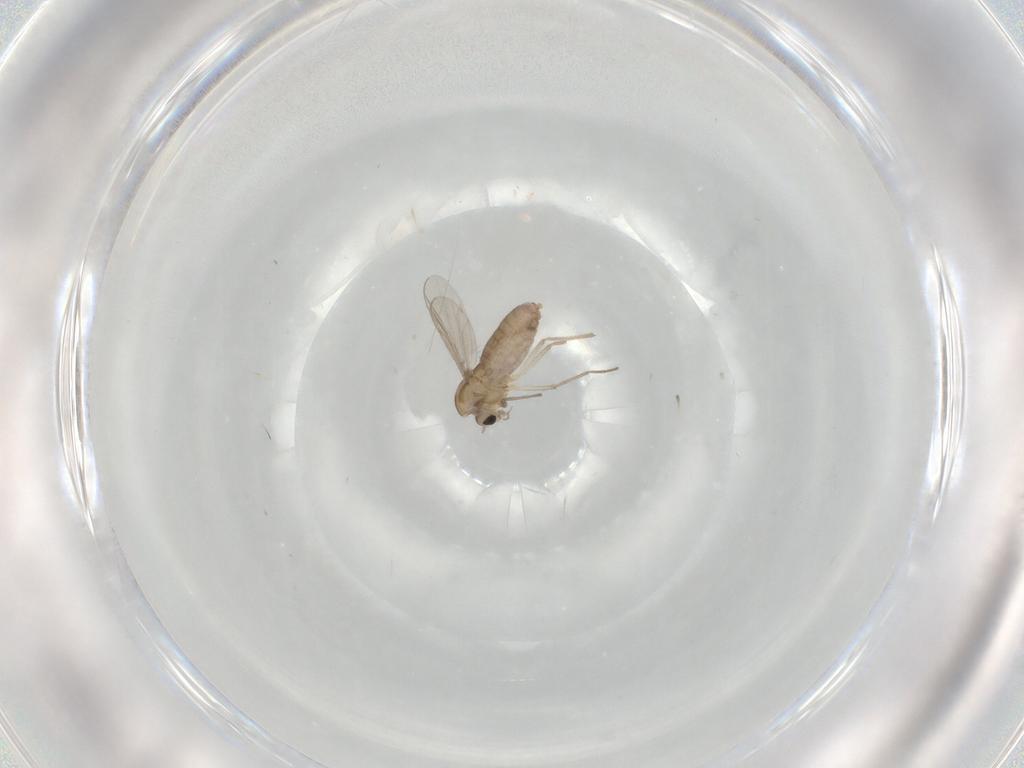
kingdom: Animalia
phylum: Arthropoda
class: Insecta
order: Diptera
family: Chironomidae
